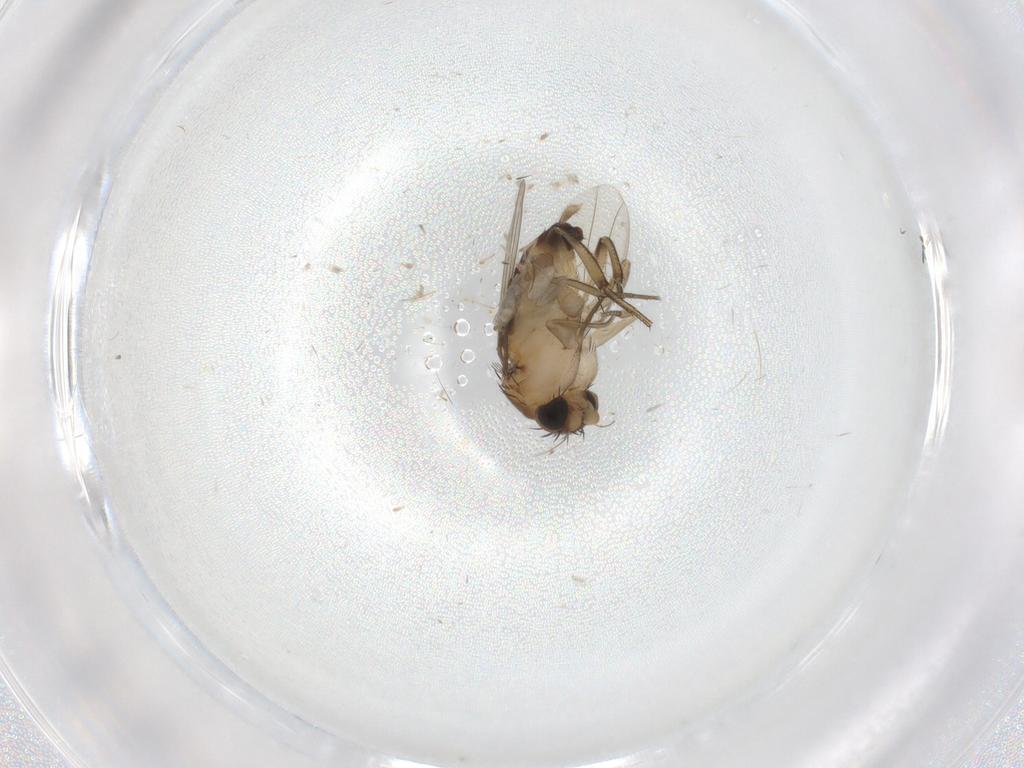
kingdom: Animalia
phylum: Arthropoda
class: Insecta
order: Diptera
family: Phoridae
